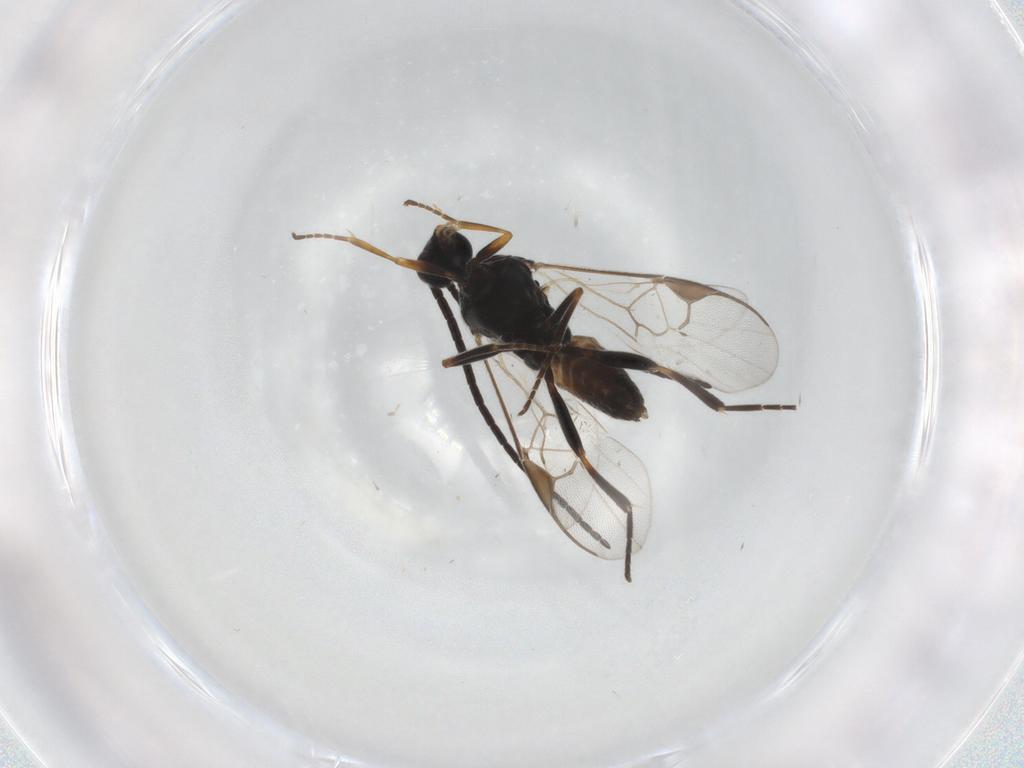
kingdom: Animalia
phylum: Arthropoda
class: Insecta
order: Hymenoptera
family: Braconidae
